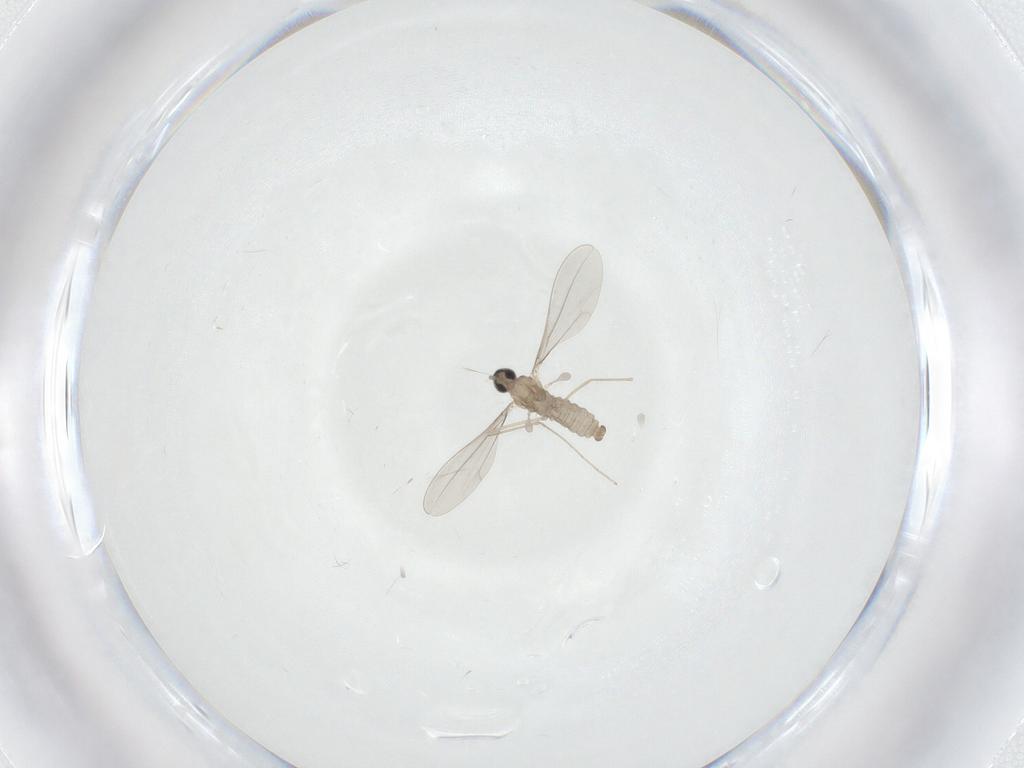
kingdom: Animalia
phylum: Arthropoda
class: Insecta
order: Diptera
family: Cecidomyiidae
